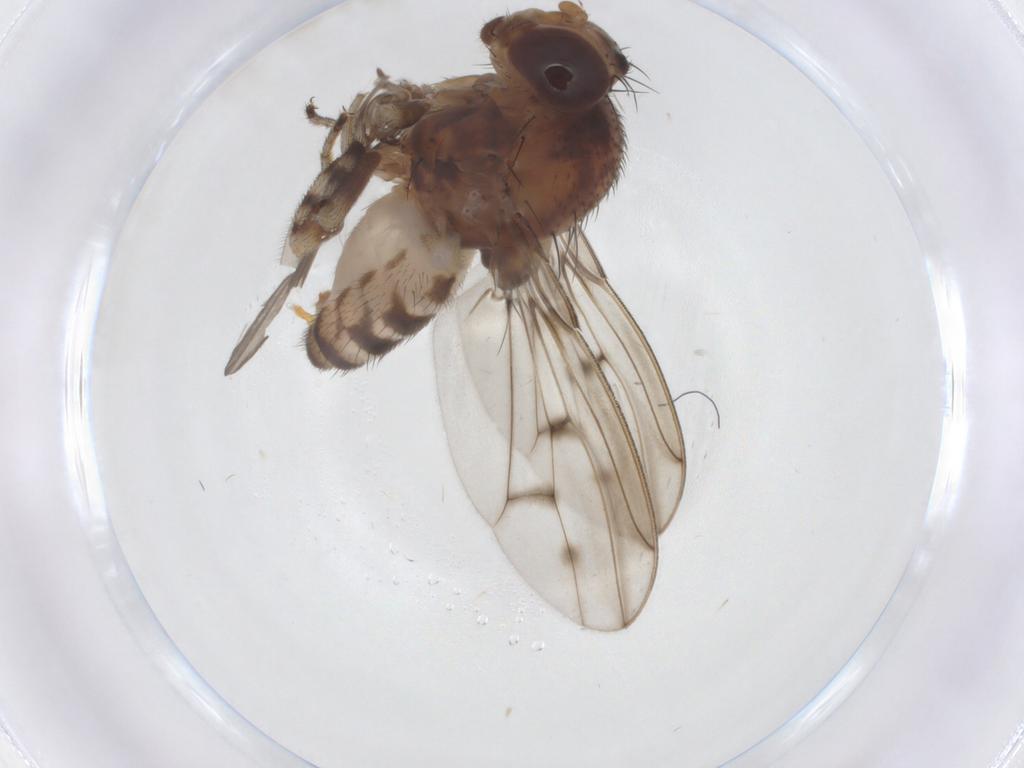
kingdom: Animalia
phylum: Arthropoda
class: Insecta
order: Diptera
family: Drosophilidae
